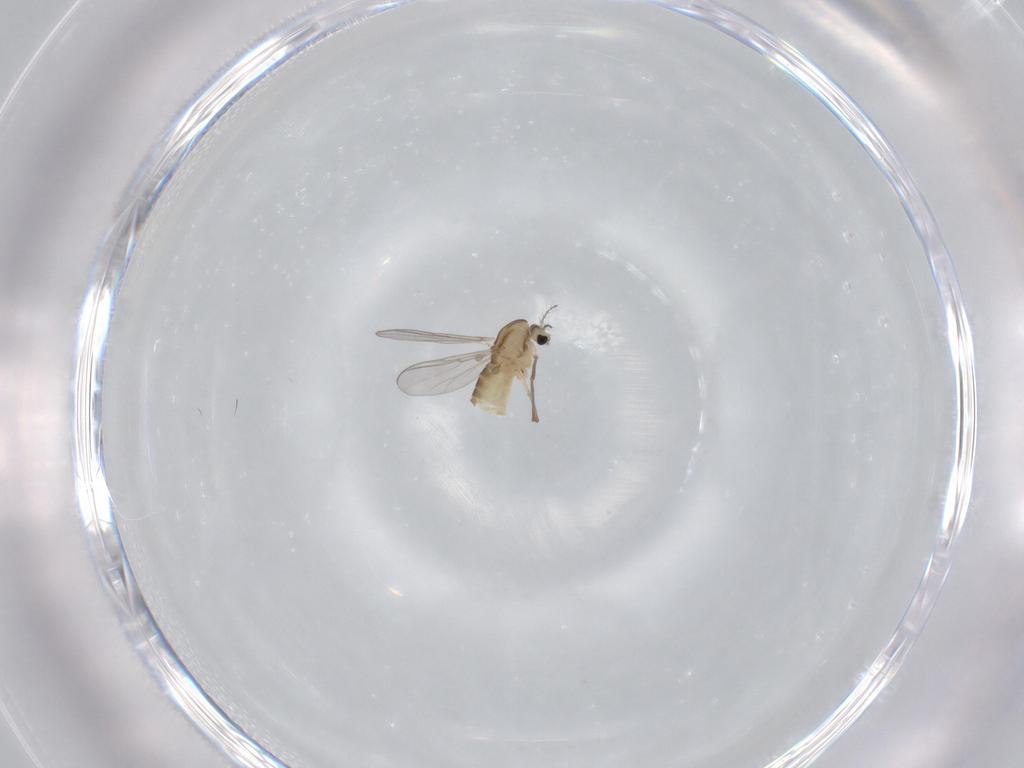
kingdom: Animalia
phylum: Arthropoda
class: Insecta
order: Diptera
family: Chironomidae
